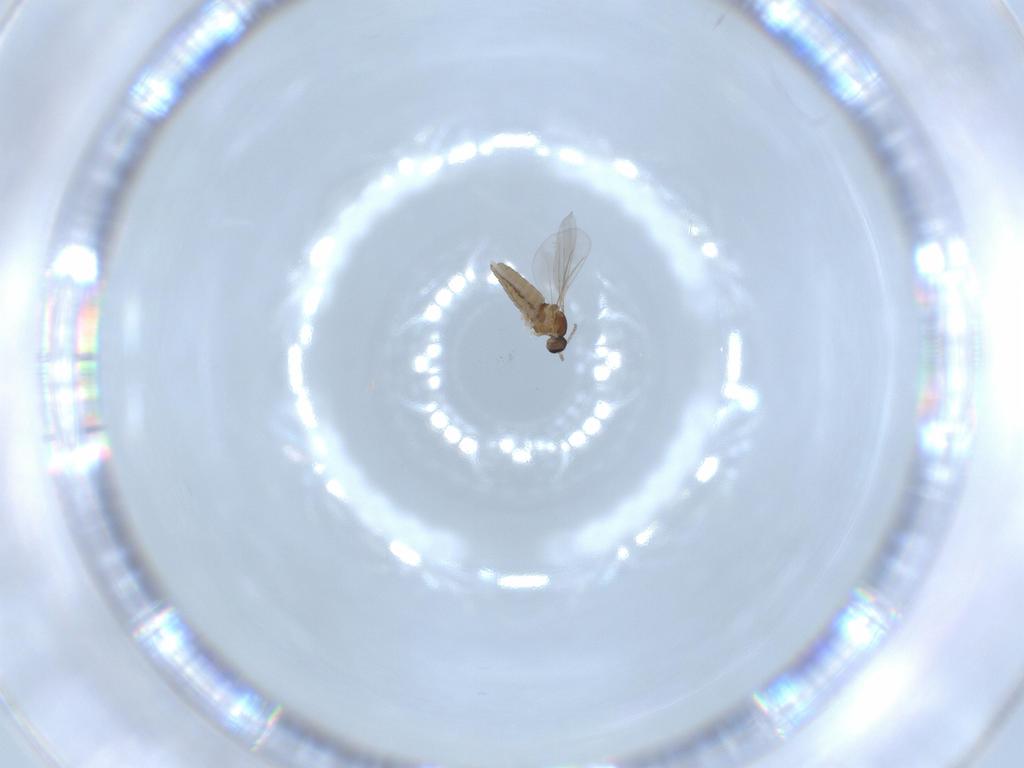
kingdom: Animalia
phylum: Arthropoda
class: Insecta
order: Diptera
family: Cecidomyiidae
